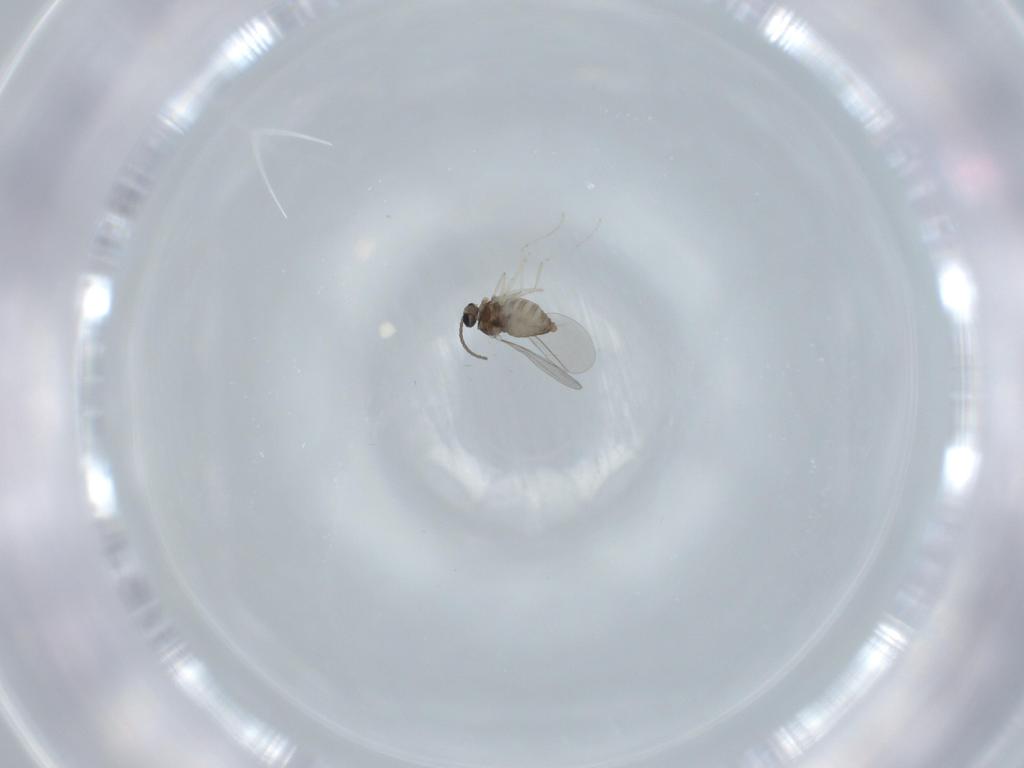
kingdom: Animalia
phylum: Arthropoda
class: Insecta
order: Diptera
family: Cecidomyiidae
